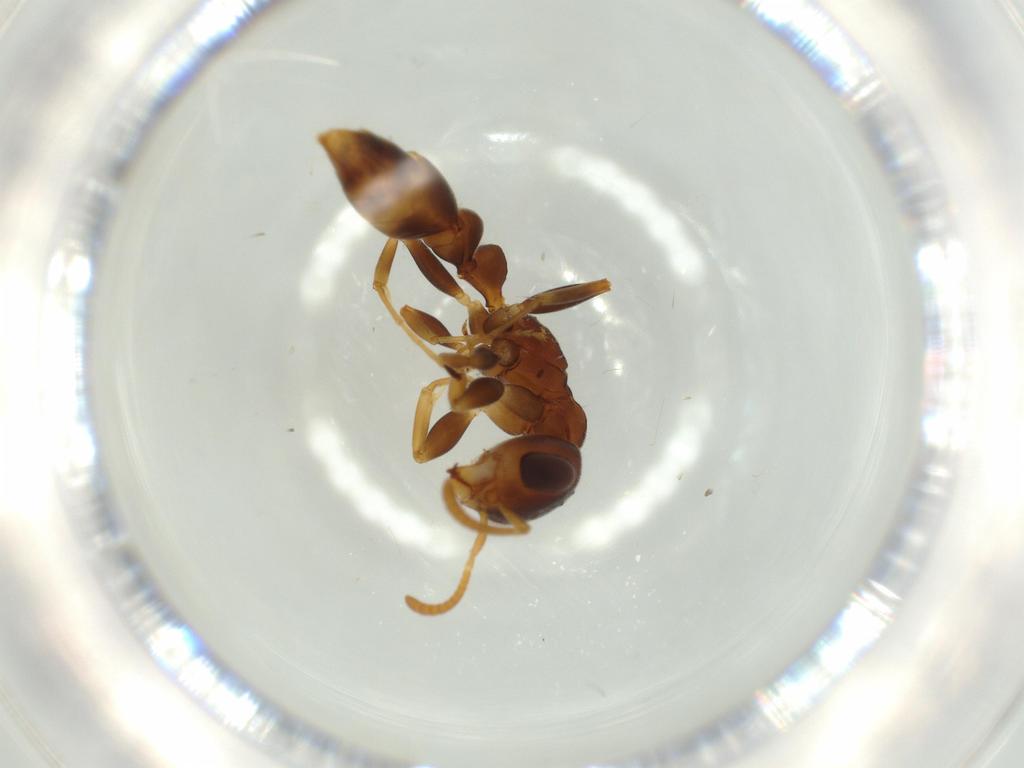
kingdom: Animalia
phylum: Arthropoda
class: Insecta
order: Hymenoptera
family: Formicidae
